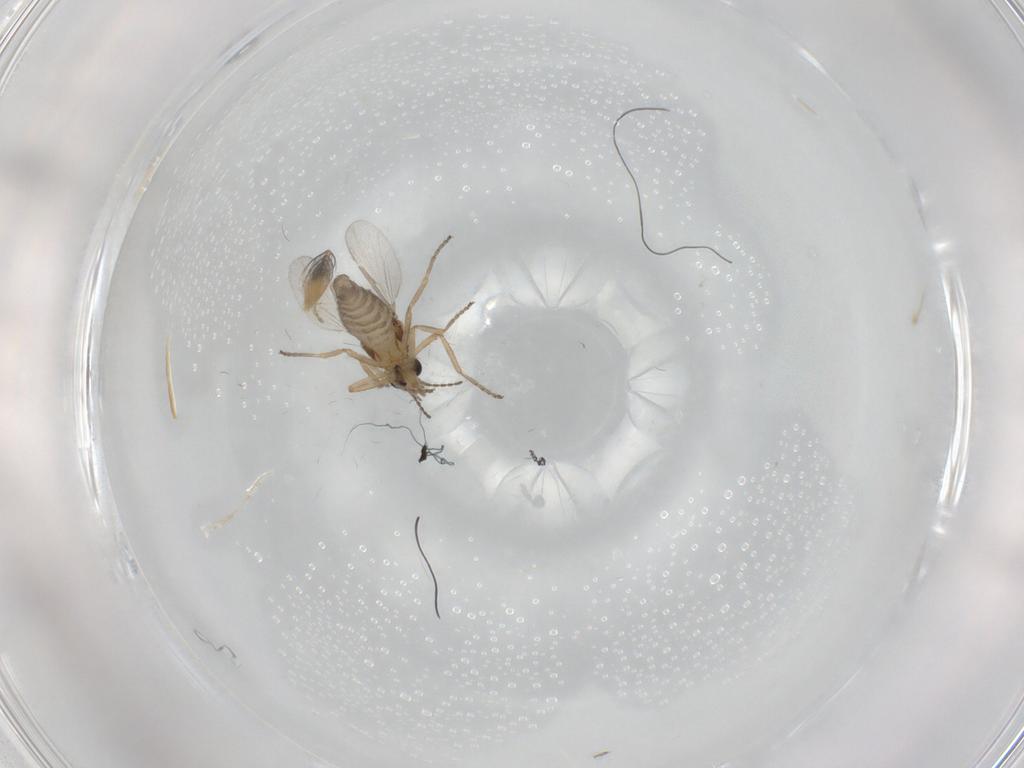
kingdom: Animalia
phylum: Arthropoda
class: Insecta
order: Diptera
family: Ceratopogonidae
